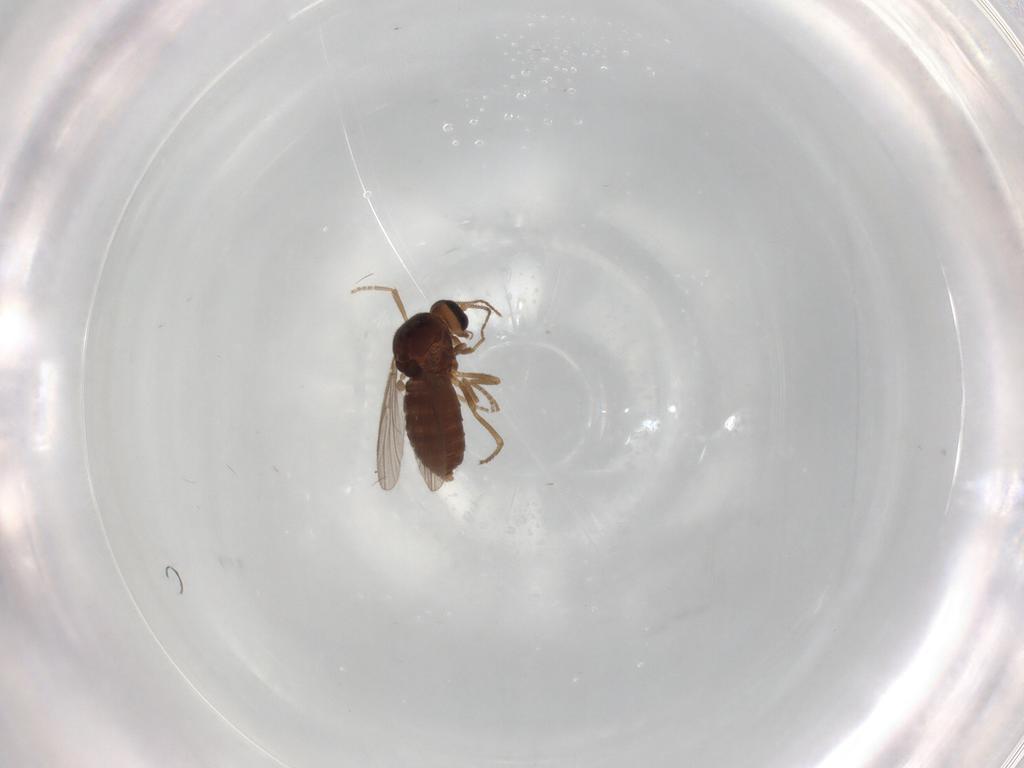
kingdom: Animalia
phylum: Arthropoda
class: Insecta
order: Diptera
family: Ceratopogonidae
